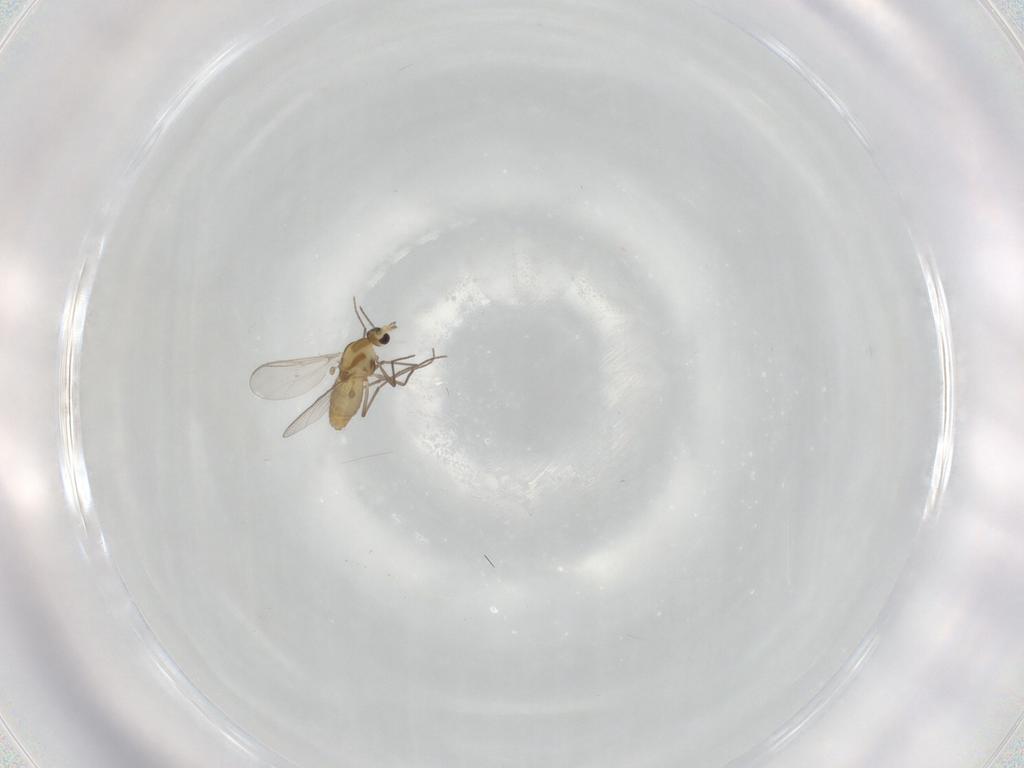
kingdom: Animalia
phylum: Arthropoda
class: Insecta
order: Diptera
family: Chironomidae
